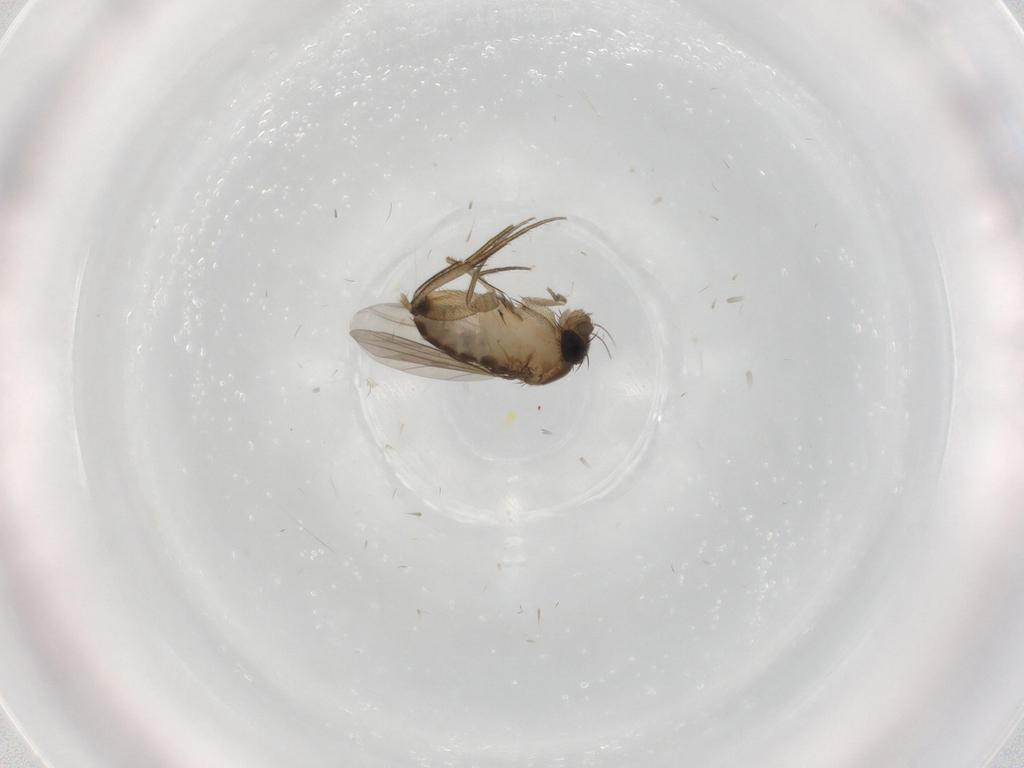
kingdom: Animalia
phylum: Arthropoda
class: Insecta
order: Diptera
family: Phoridae
